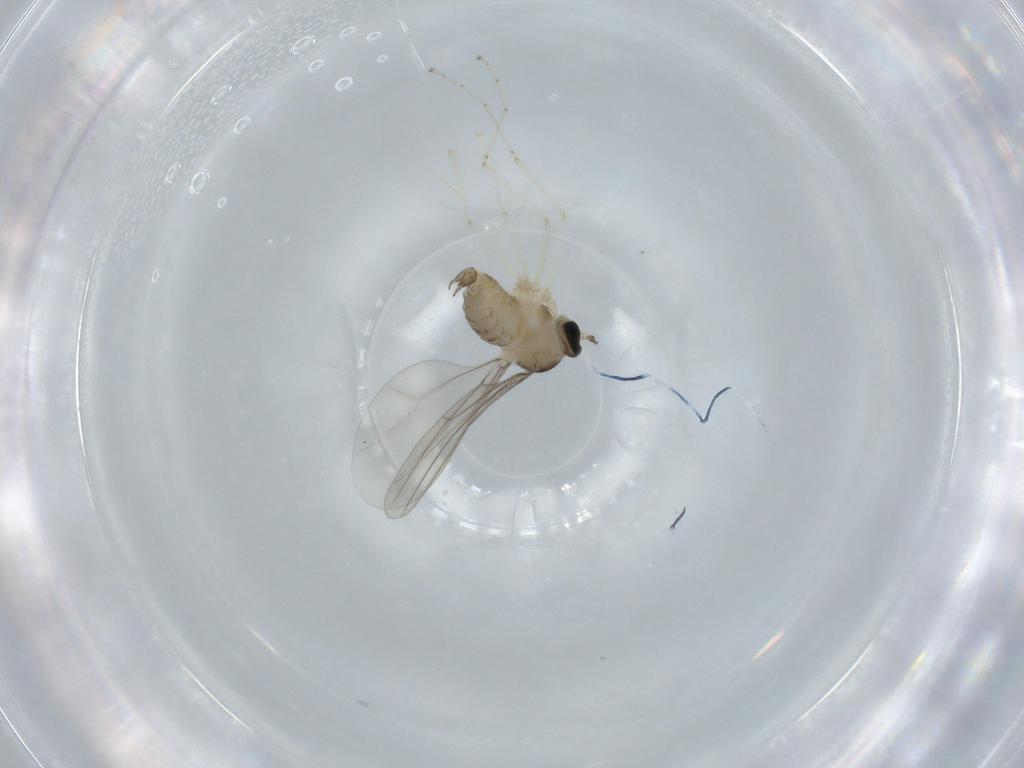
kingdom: Animalia
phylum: Arthropoda
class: Insecta
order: Diptera
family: Cecidomyiidae
